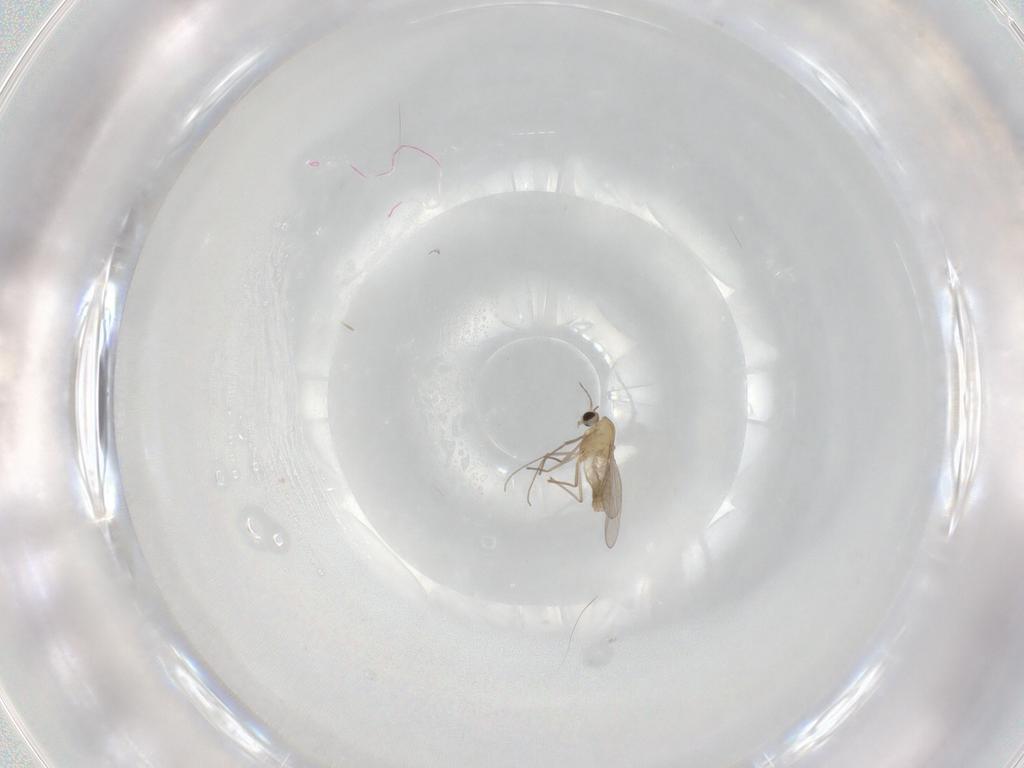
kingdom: Animalia
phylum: Arthropoda
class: Insecta
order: Diptera
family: Chironomidae
